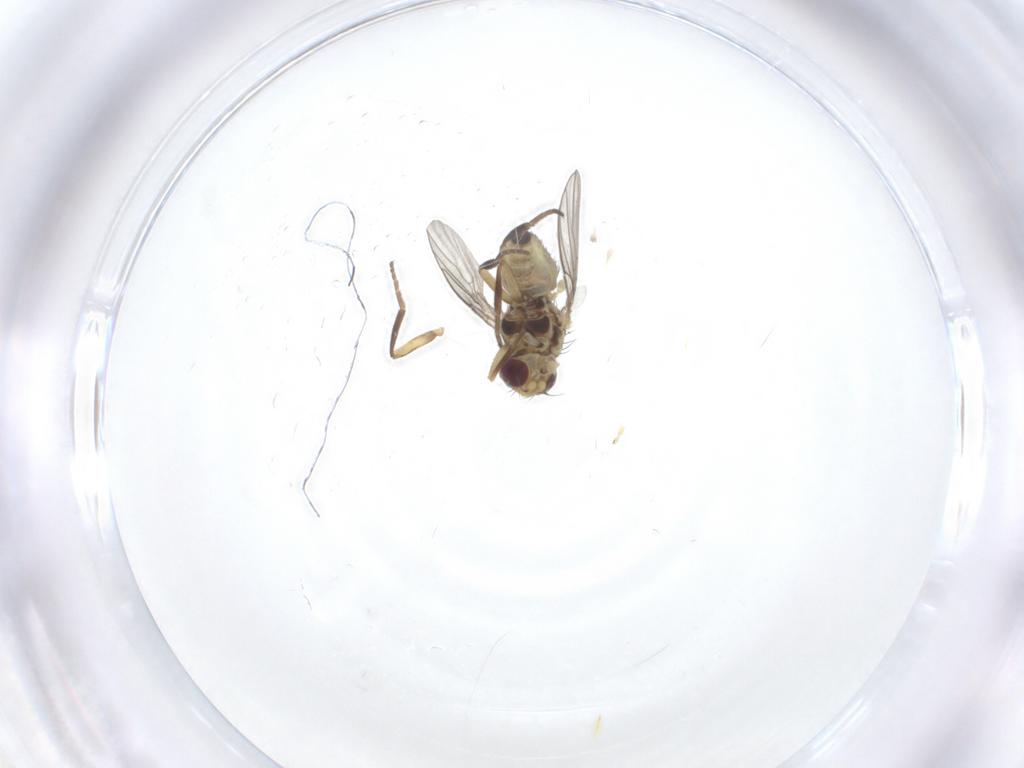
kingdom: Animalia
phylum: Arthropoda
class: Insecta
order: Diptera
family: Agromyzidae
